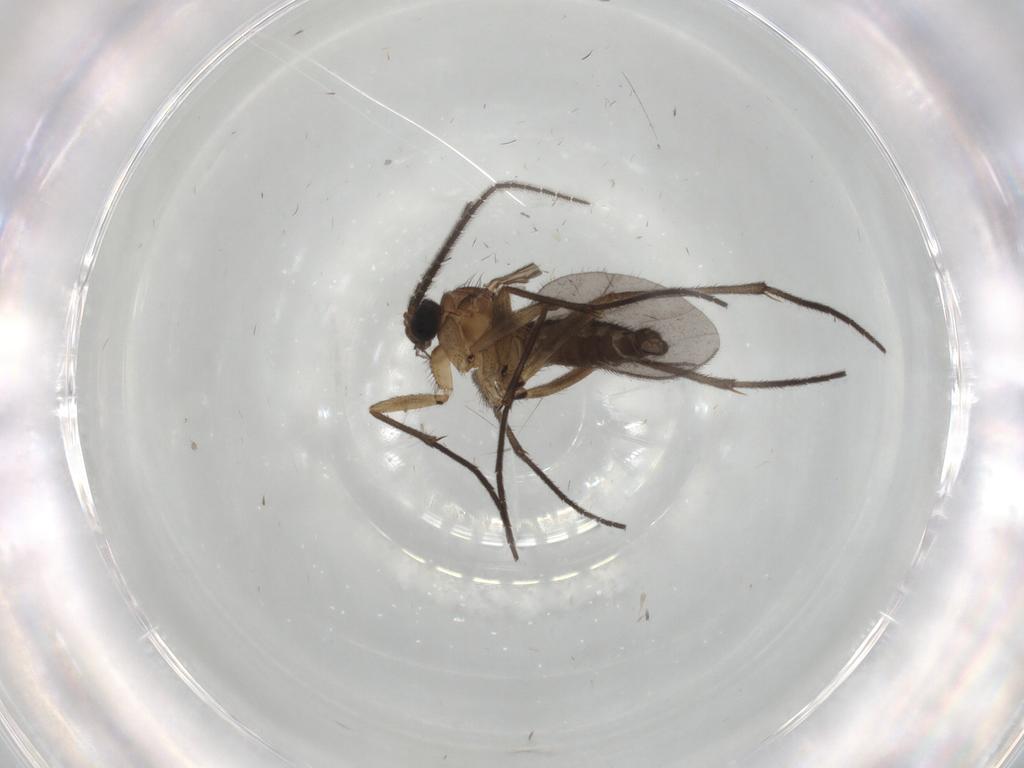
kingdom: Animalia
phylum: Arthropoda
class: Insecta
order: Diptera
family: Sciaridae
